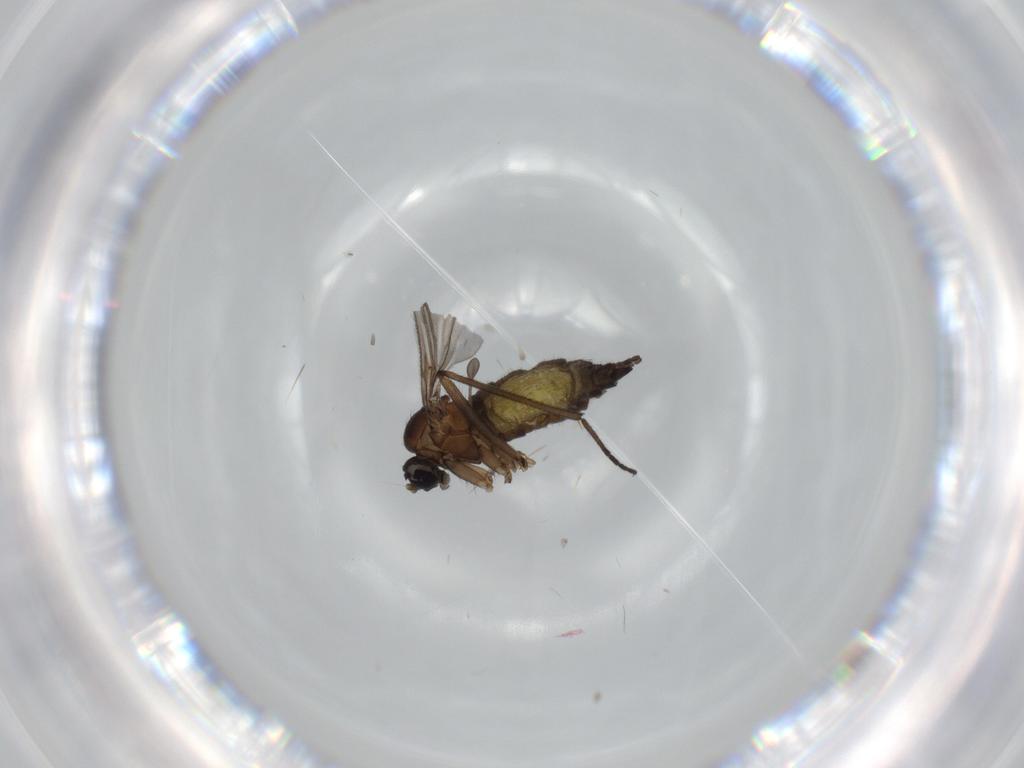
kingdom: Animalia
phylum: Arthropoda
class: Insecta
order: Diptera
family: Sciaridae
